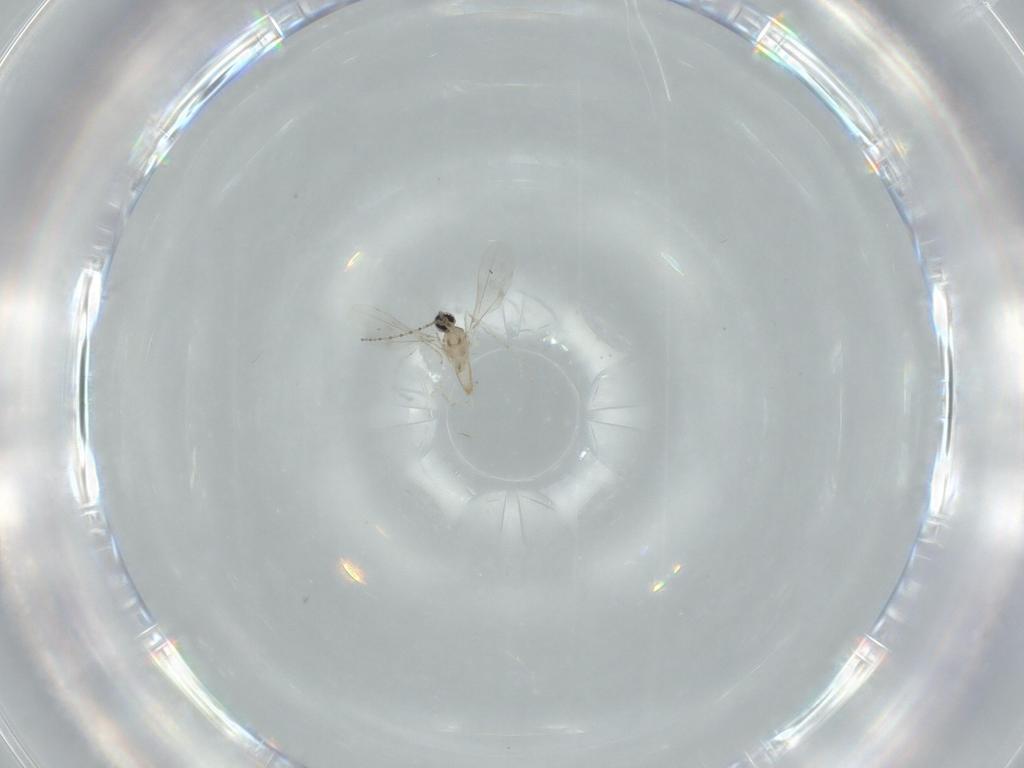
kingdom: Animalia
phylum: Arthropoda
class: Insecta
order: Diptera
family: Cecidomyiidae
